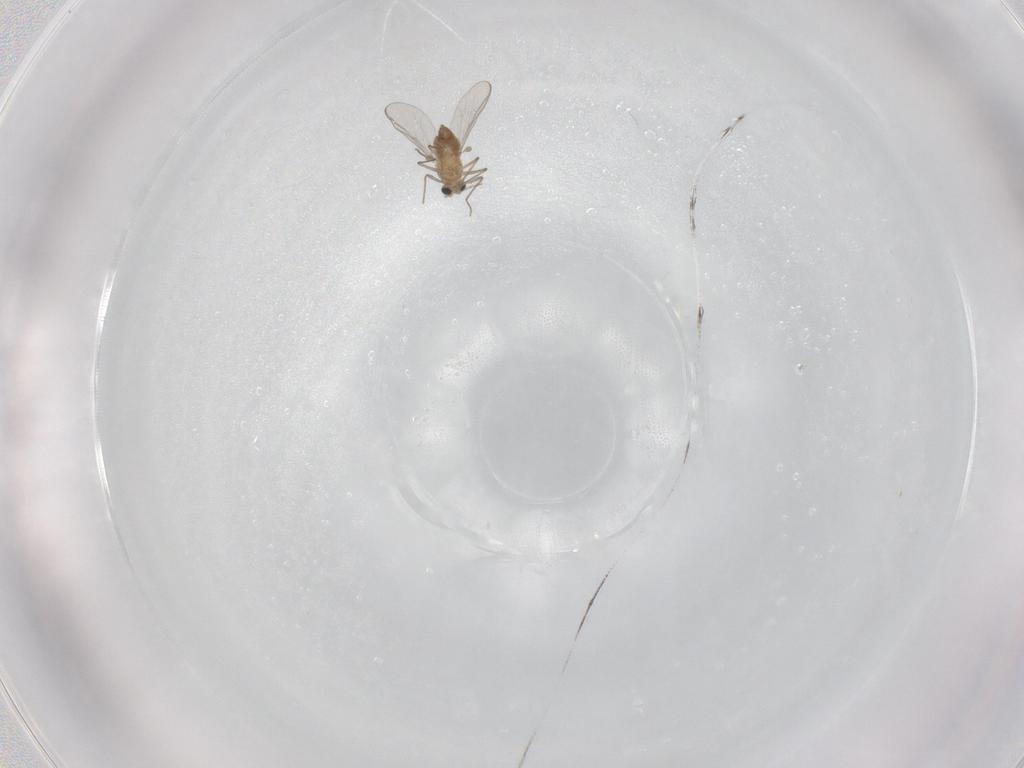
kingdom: Animalia
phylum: Arthropoda
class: Insecta
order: Diptera
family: Chironomidae
